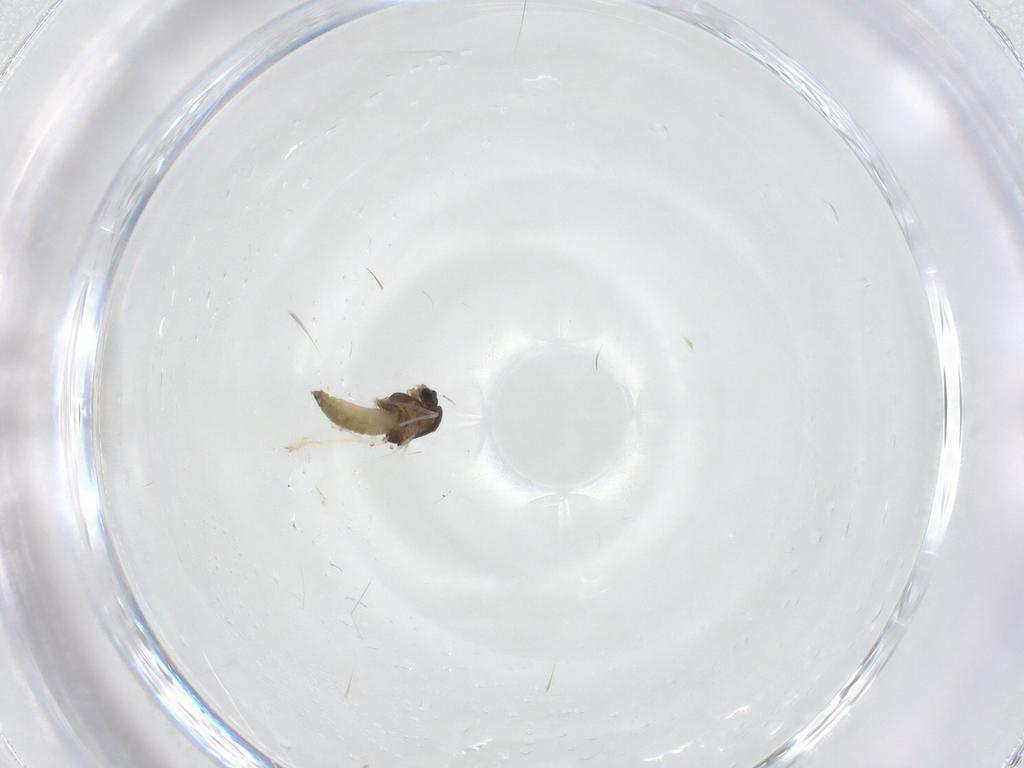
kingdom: Animalia
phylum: Arthropoda
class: Insecta
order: Diptera
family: Chironomidae
